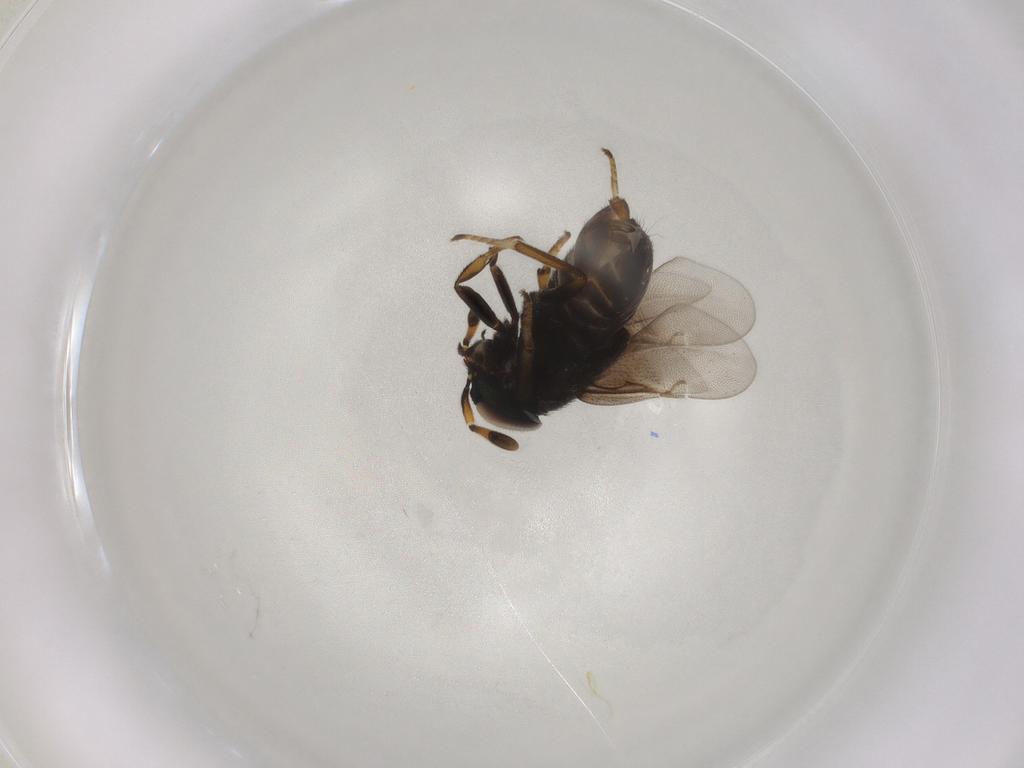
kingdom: Animalia
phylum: Arthropoda
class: Insecta
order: Hymenoptera
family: Encyrtidae
